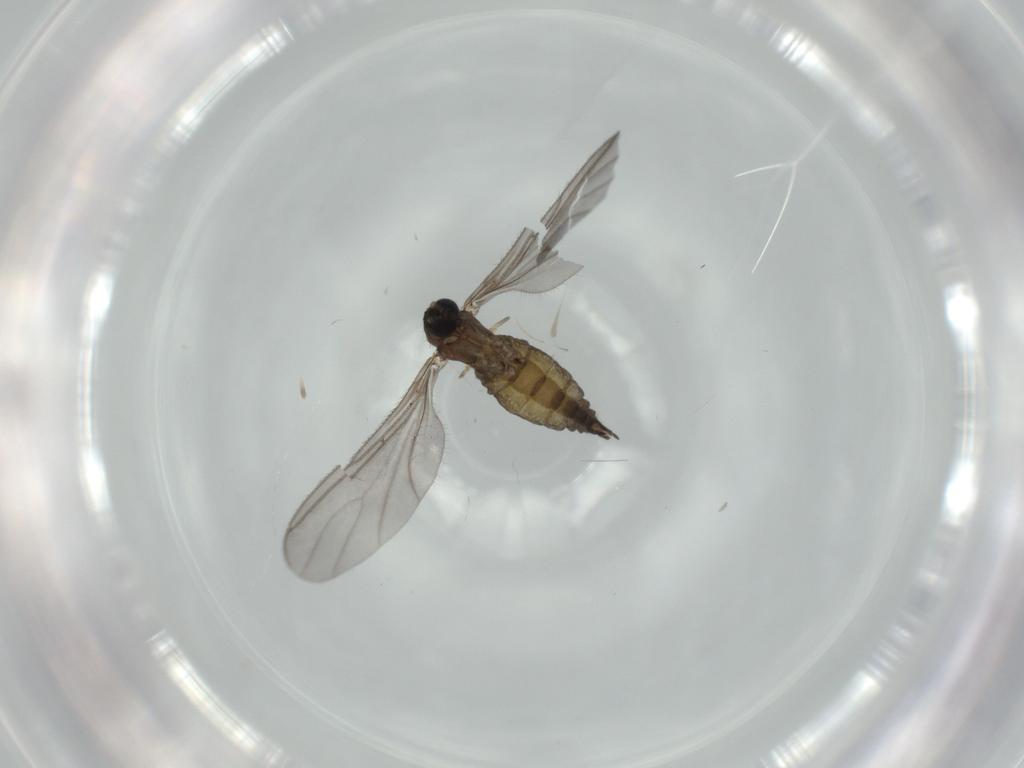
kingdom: Animalia
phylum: Arthropoda
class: Insecta
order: Diptera
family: Sciaridae
